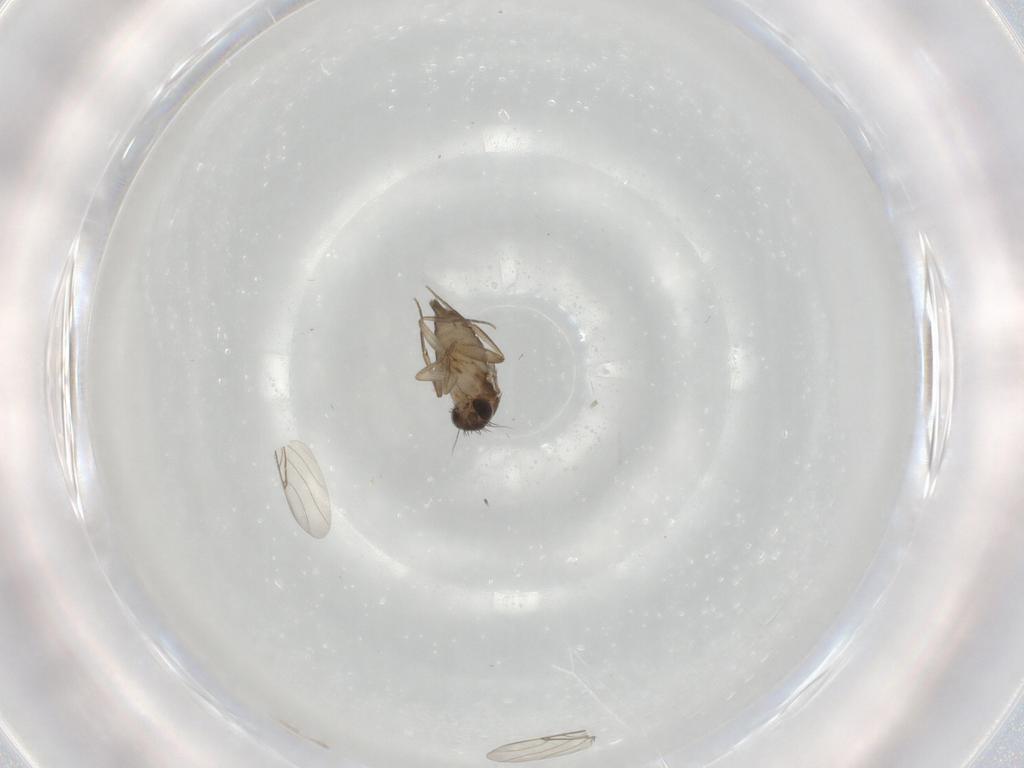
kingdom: Animalia
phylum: Arthropoda
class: Insecta
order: Diptera
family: Phoridae
